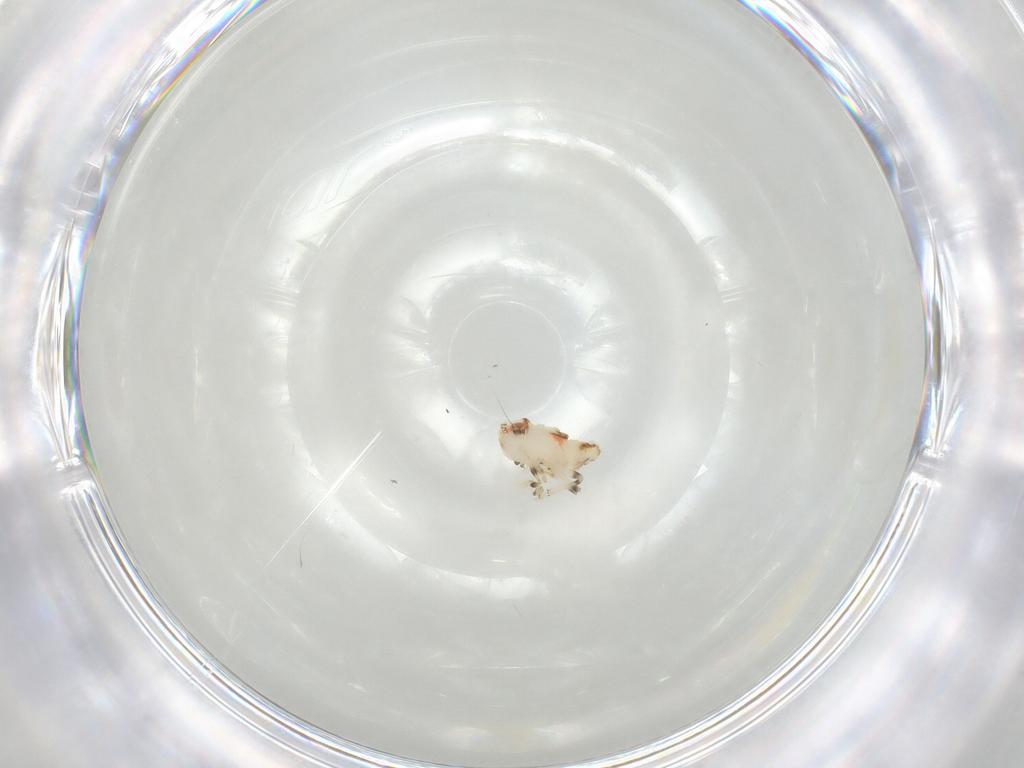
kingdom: Animalia
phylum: Arthropoda
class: Insecta
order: Hemiptera
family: Nogodinidae
